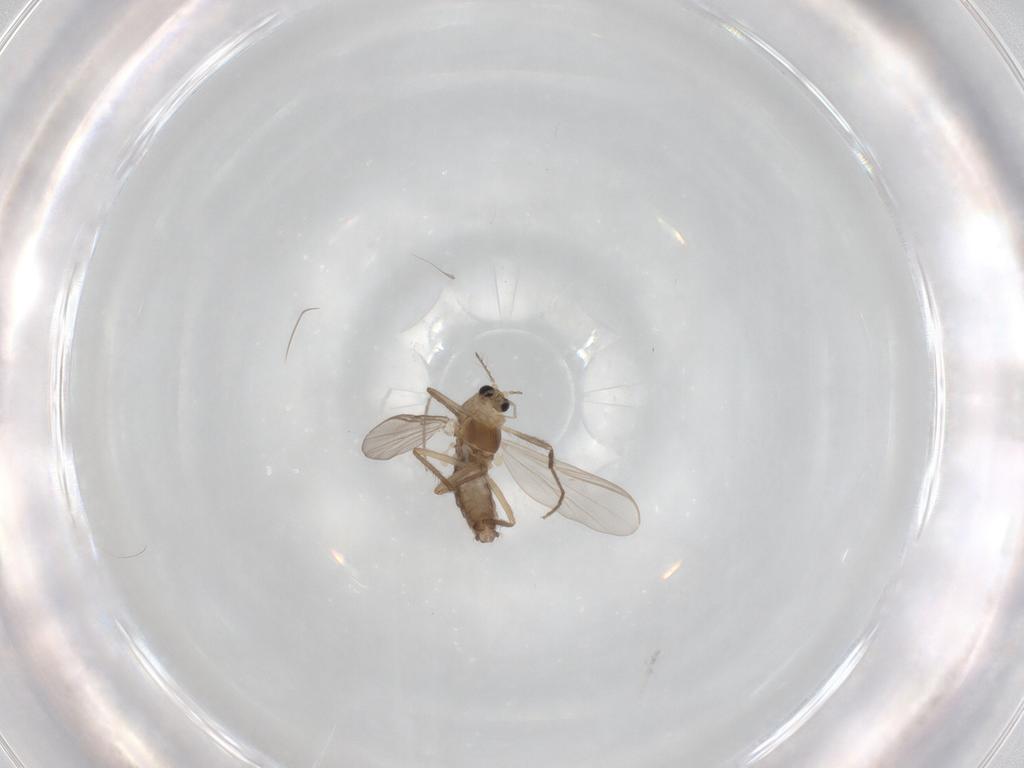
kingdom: Animalia
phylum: Arthropoda
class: Insecta
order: Diptera
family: Chironomidae
